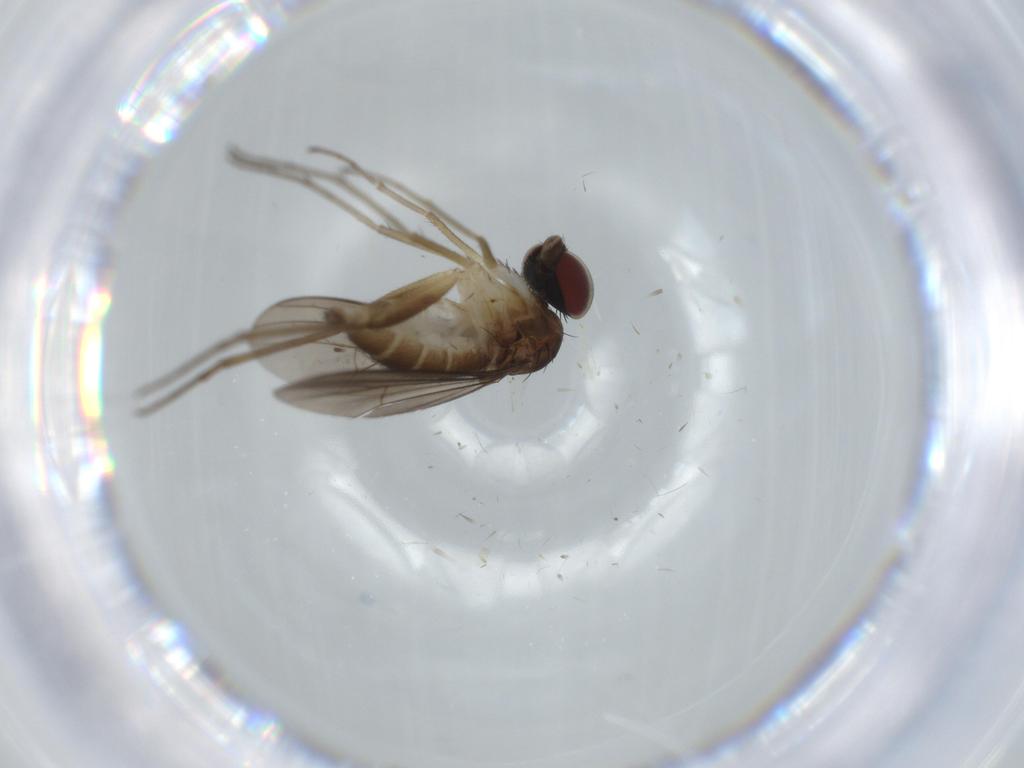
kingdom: Animalia
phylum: Arthropoda
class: Insecta
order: Diptera
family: Dolichopodidae
